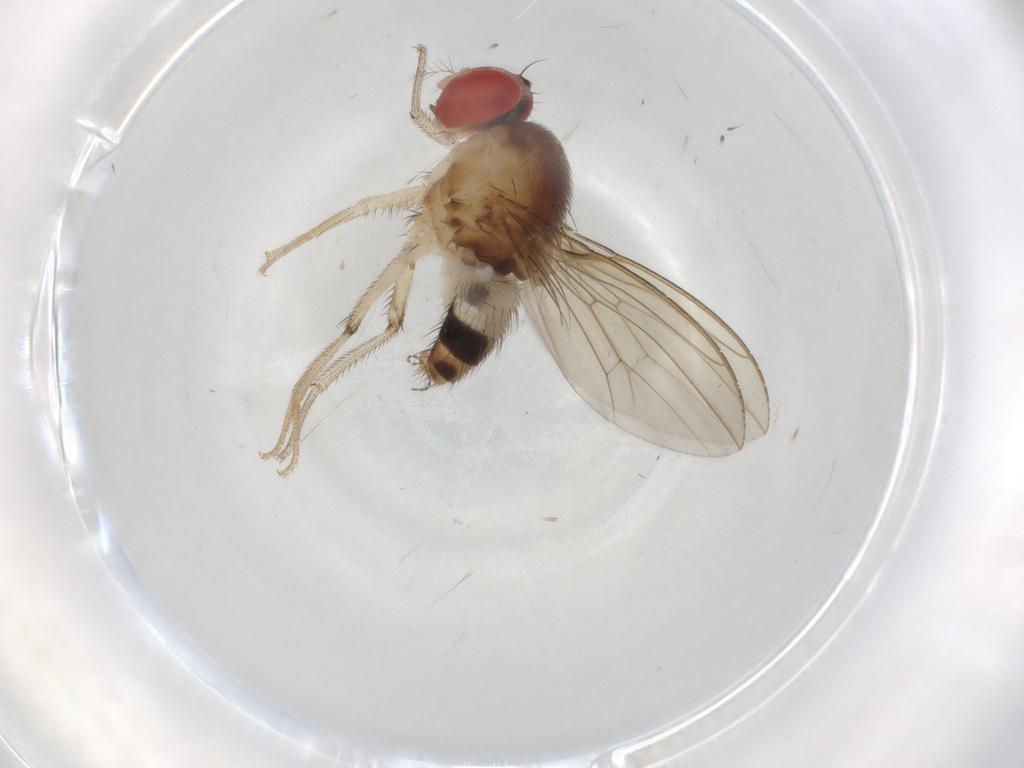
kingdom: Animalia
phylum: Arthropoda
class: Insecta
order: Diptera
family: Drosophilidae
